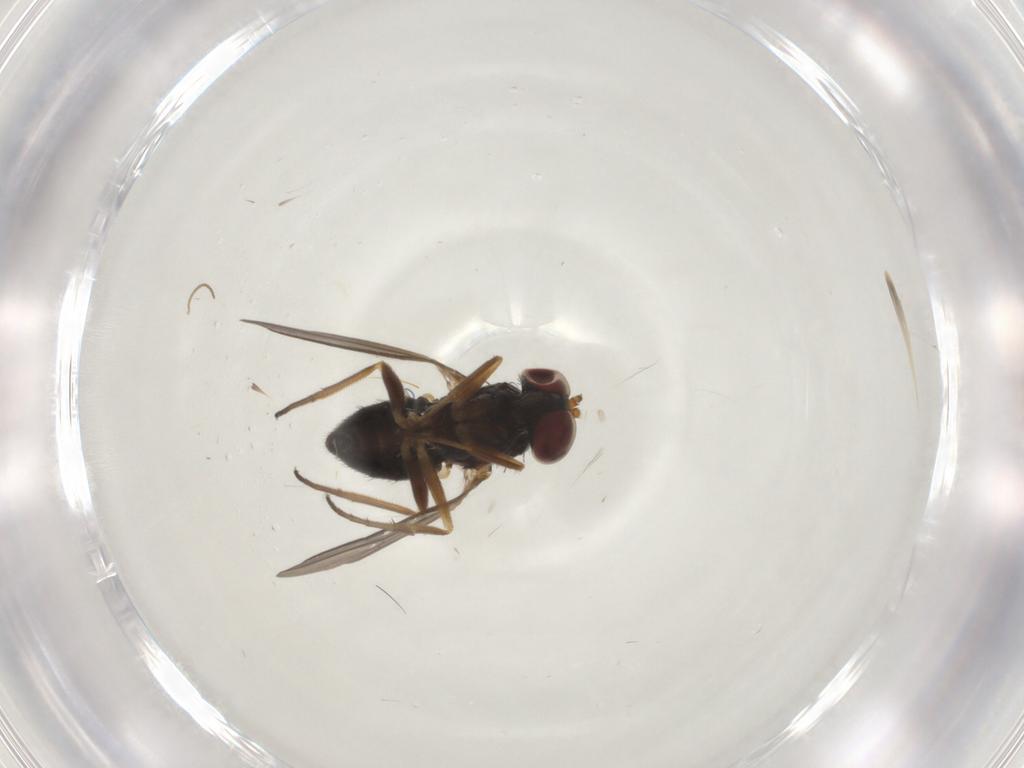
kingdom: Animalia
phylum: Arthropoda
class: Insecta
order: Diptera
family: Dolichopodidae
